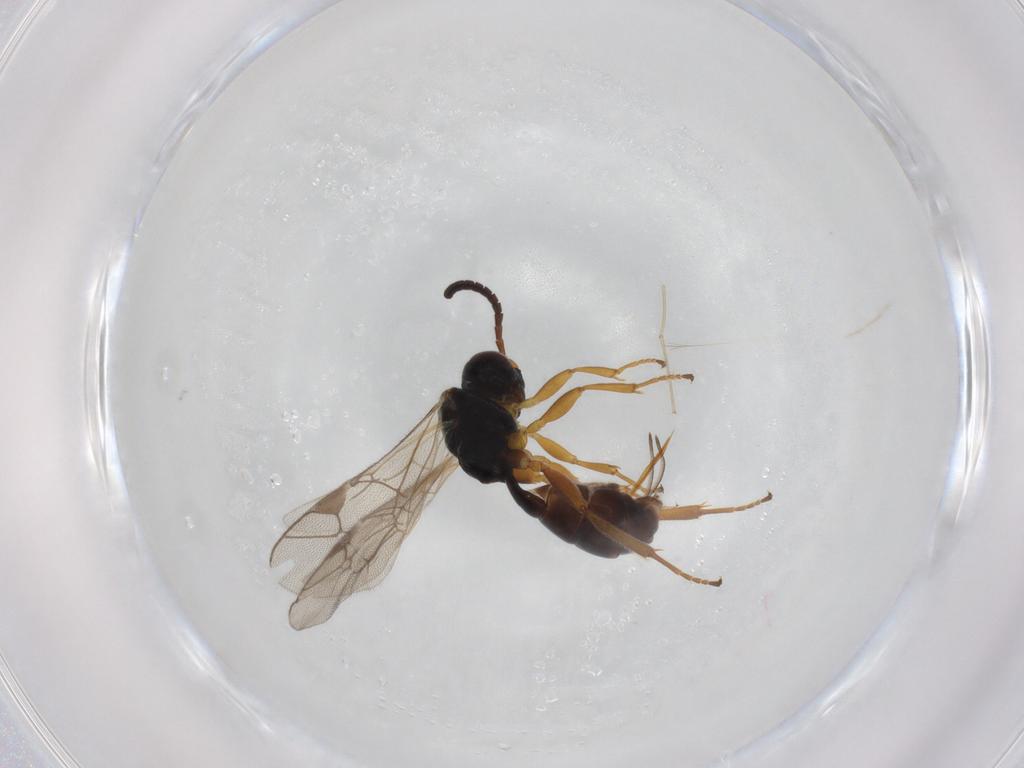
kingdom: Animalia
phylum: Arthropoda
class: Insecta
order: Hymenoptera
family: Ichneumonidae
